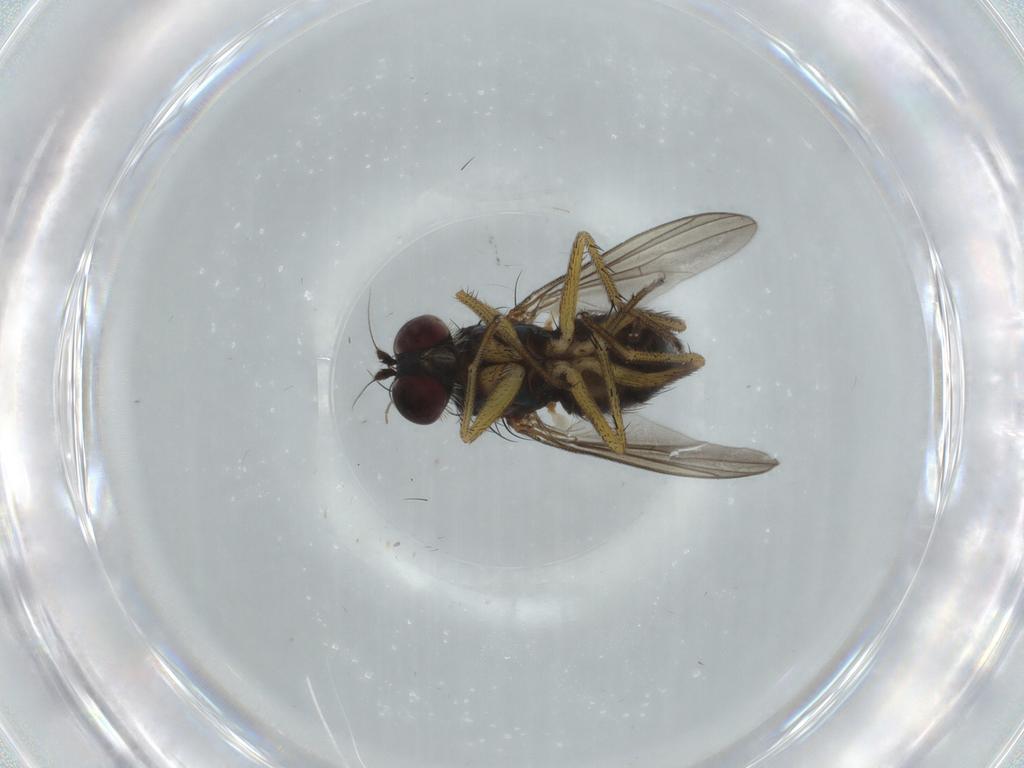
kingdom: Animalia
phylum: Arthropoda
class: Insecta
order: Diptera
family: Dolichopodidae
